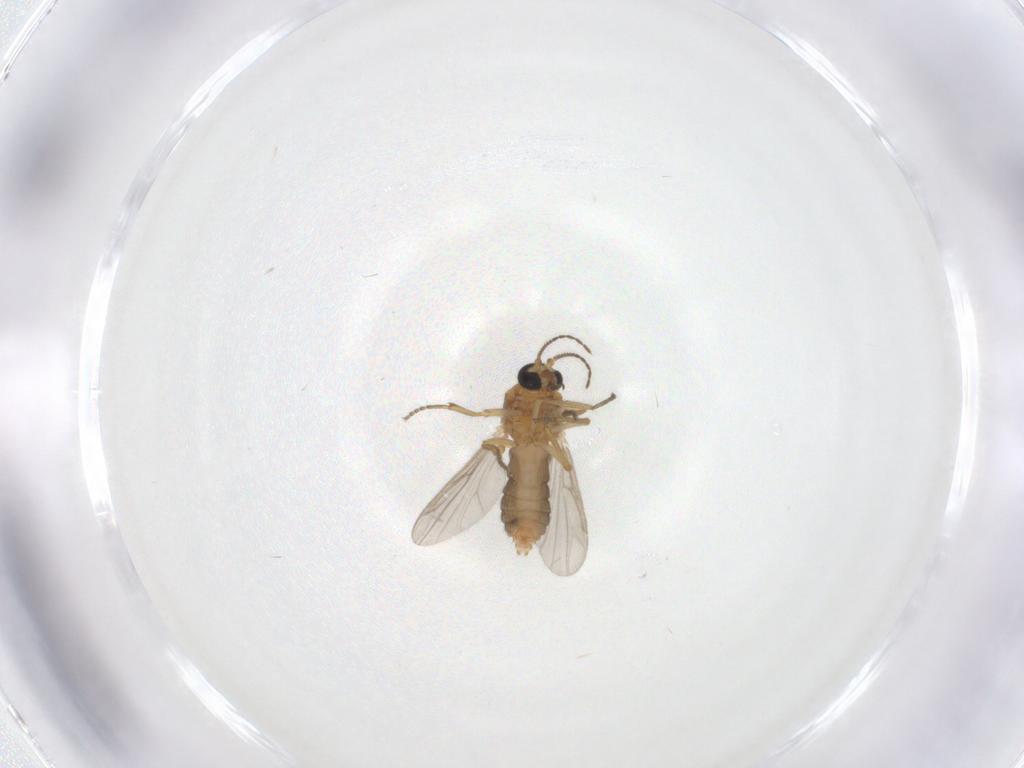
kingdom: Animalia
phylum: Arthropoda
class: Insecta
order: Diptera
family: Ceratopogonidae
